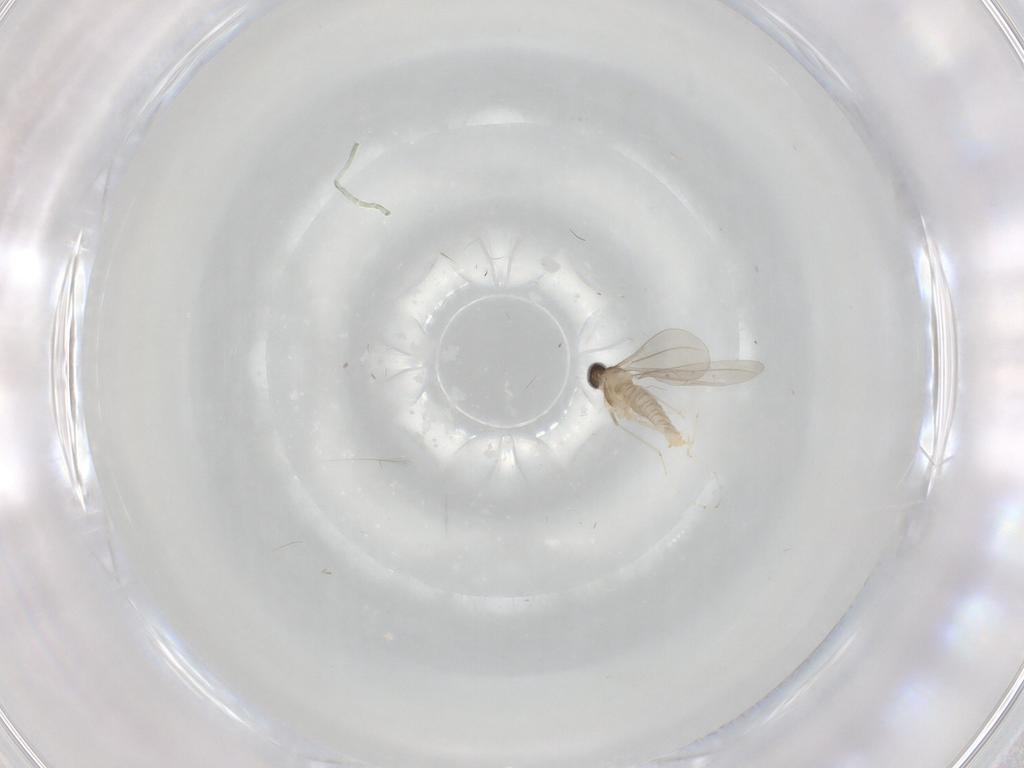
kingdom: Animalia
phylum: Arthropoda
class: Insecta
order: Diptera
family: Cecidomyiidae
